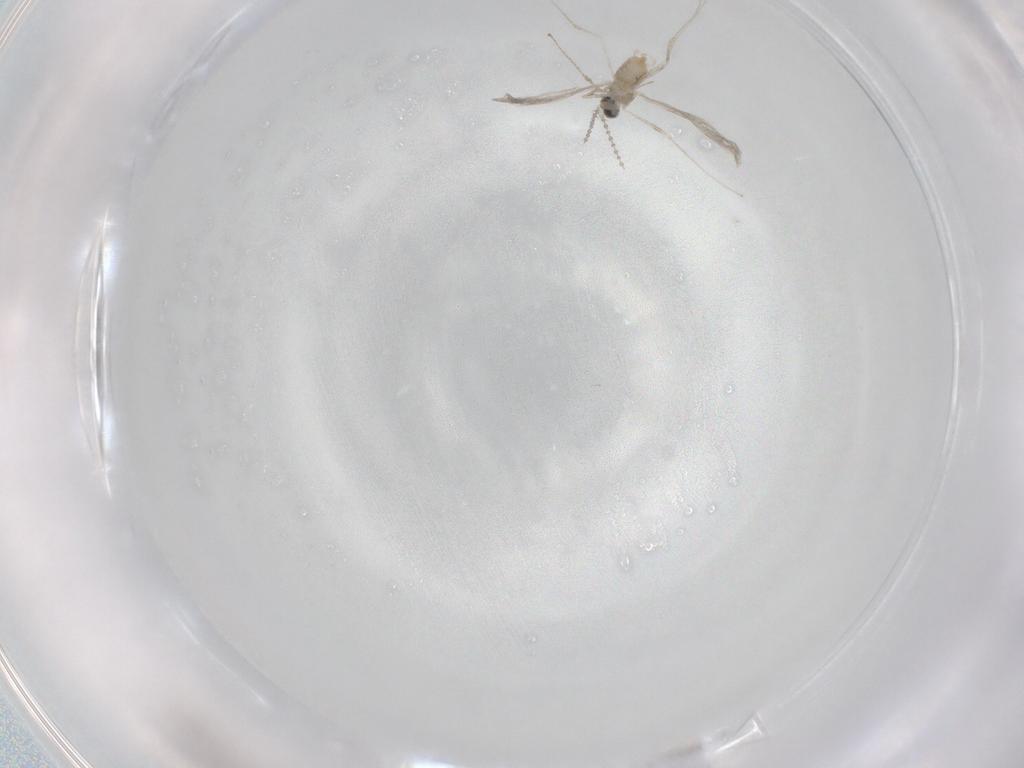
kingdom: Animalia
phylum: Arthropoda
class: Insecta
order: Diptera
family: Cecidomyiidae
